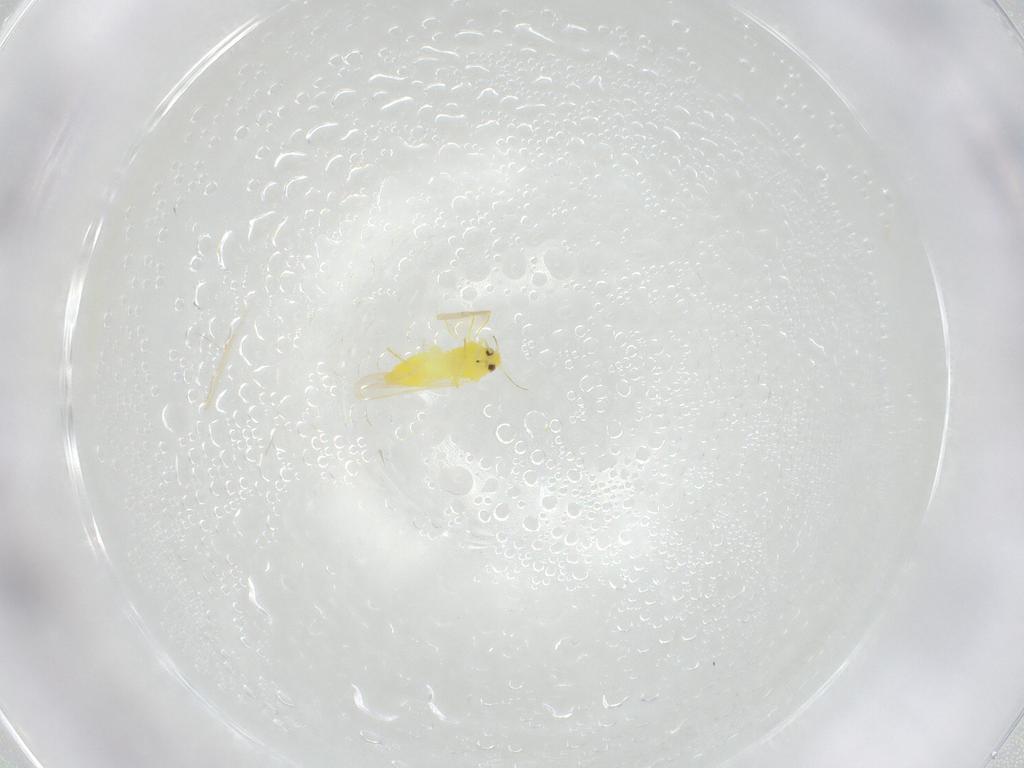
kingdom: Animalia
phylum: Arthropoda
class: Insecta
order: Hemiptera
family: Aleyrodidae
